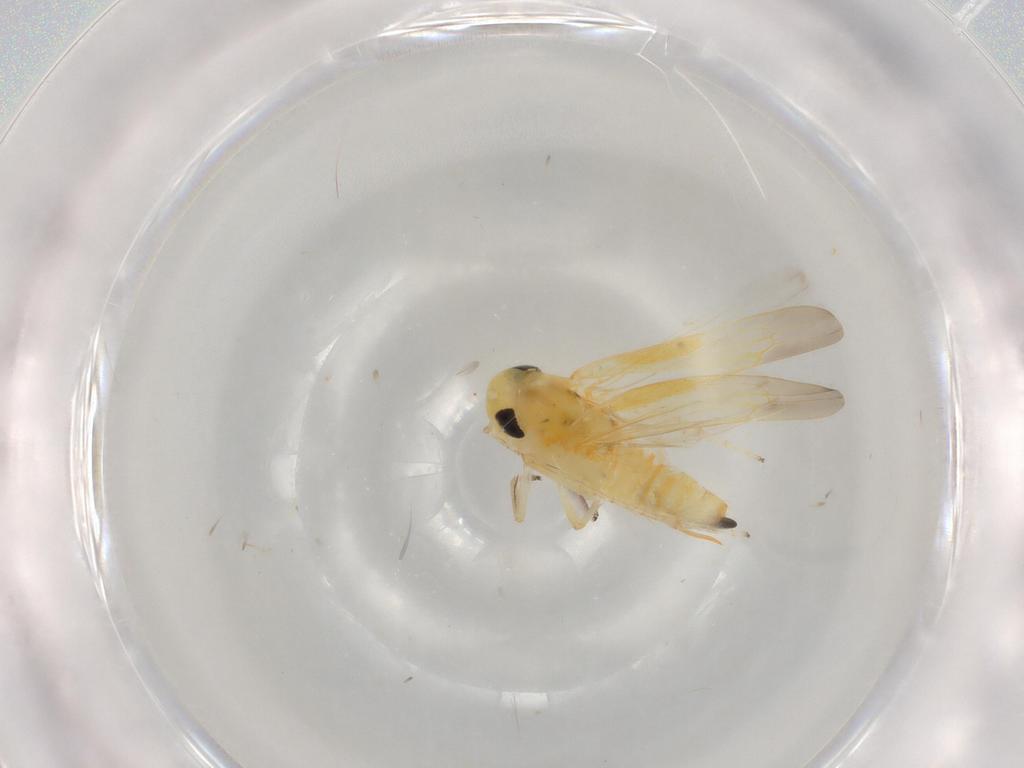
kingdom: Animalia
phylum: Arthropoda
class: Insecta
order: Hemiptera
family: Cicadellidae
